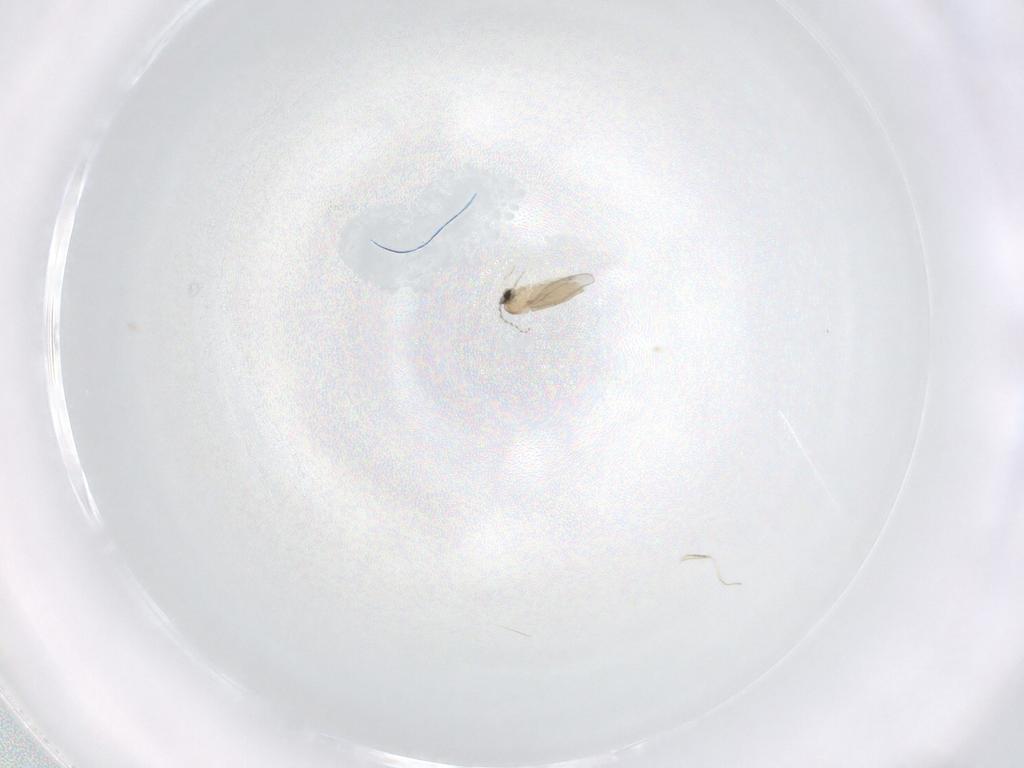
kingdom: Animalia
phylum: Arthropoda
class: Insecta
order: Diptera
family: Cecidomyiidae
